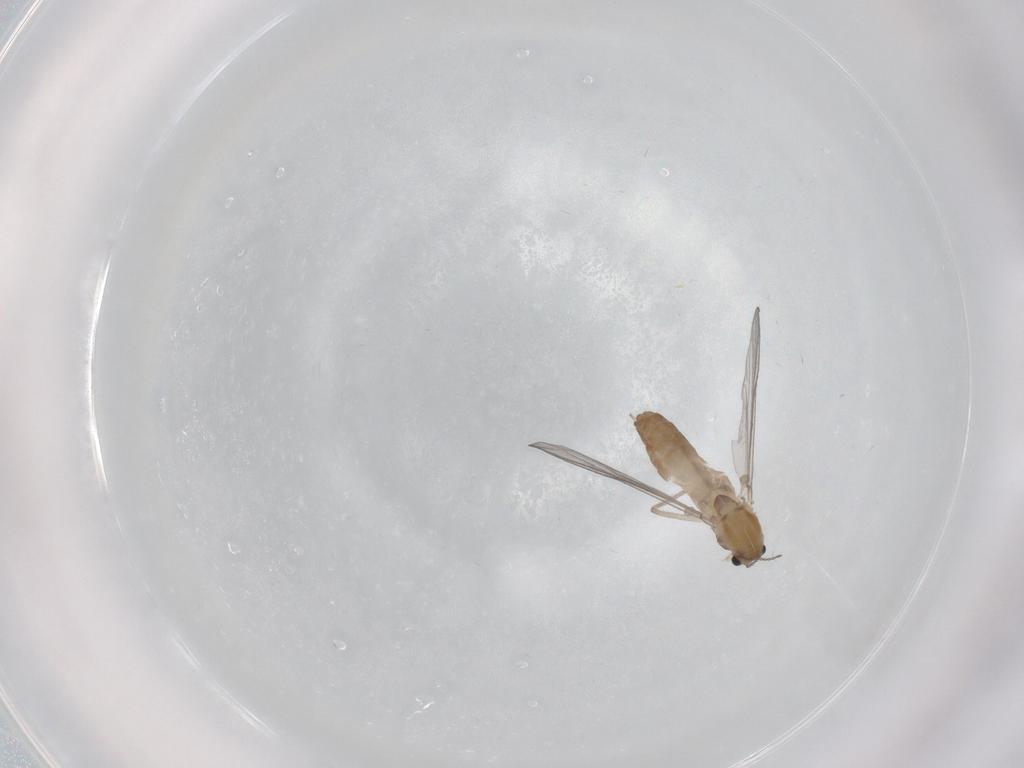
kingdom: Animalia
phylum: Arthropoda
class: Insecta
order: Diptera
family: Chironomidae
